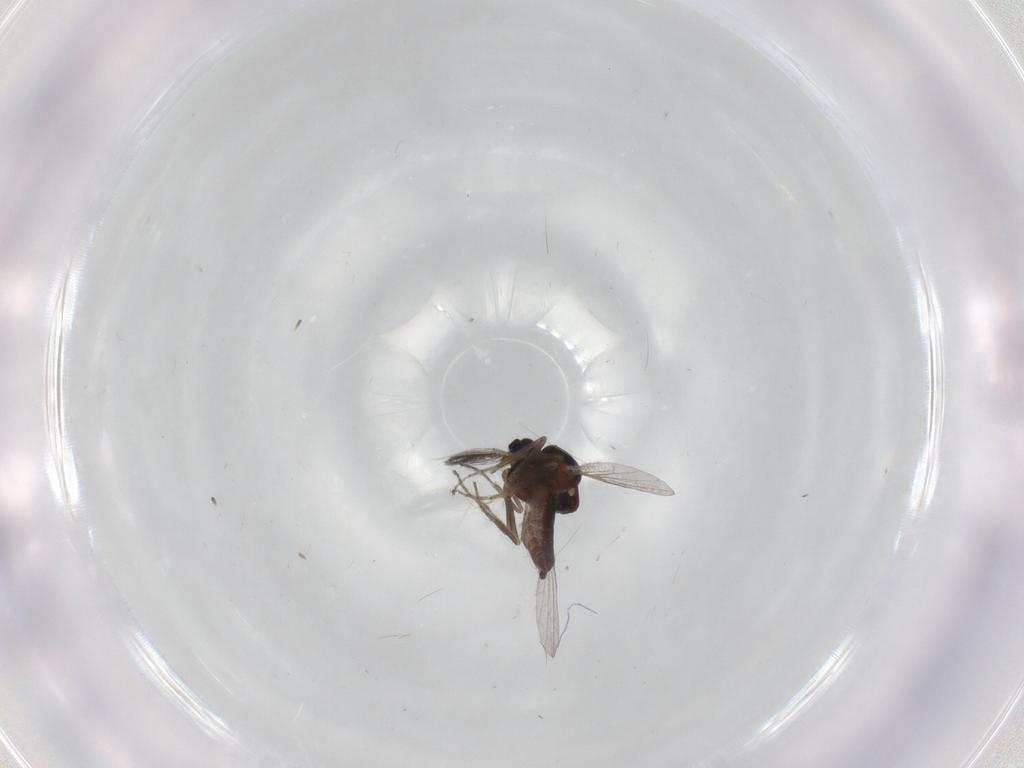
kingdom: Animalia
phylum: Arthropoda
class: Insecta
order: Diptera
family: Ceratopogonidae
